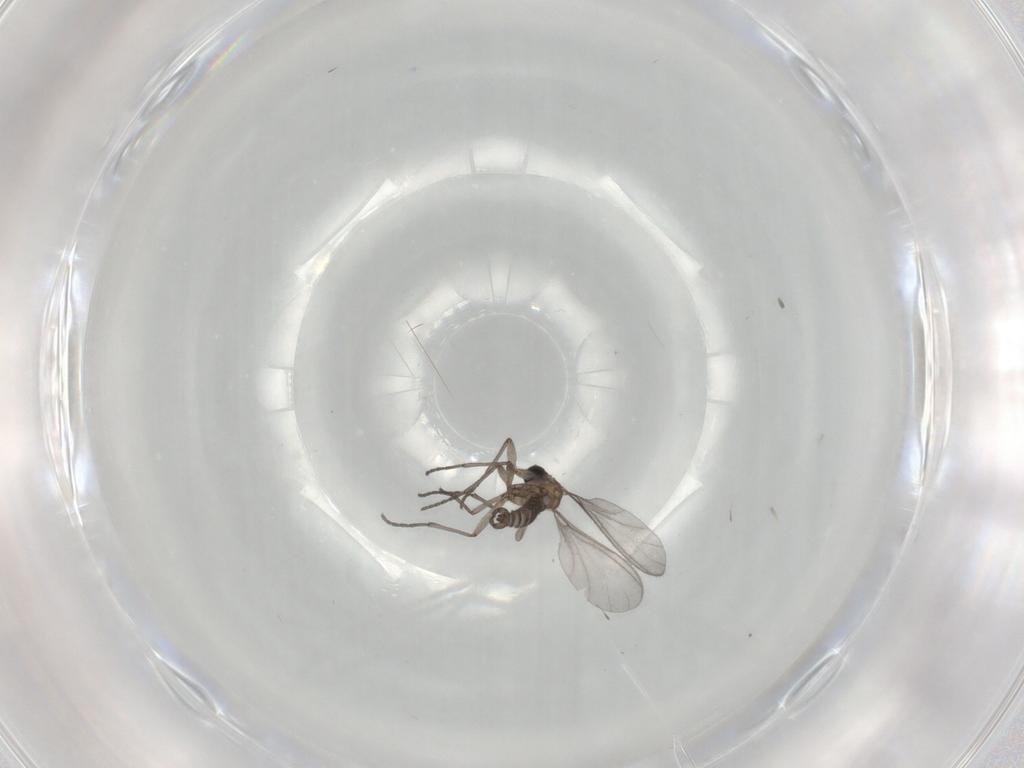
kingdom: Animalia
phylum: Arthropoda
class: Insecta
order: Diptera
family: Sciaridae
